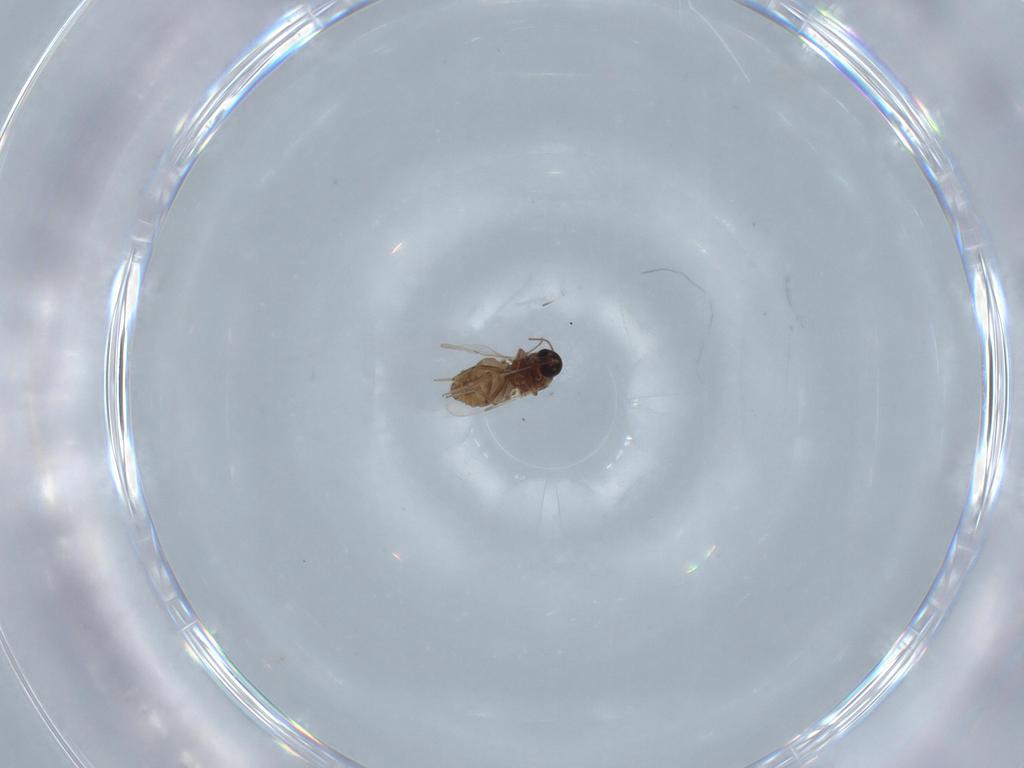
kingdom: Animalia
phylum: Arthropoda
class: Insecta
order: Diptera
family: Ceratopogonidae
